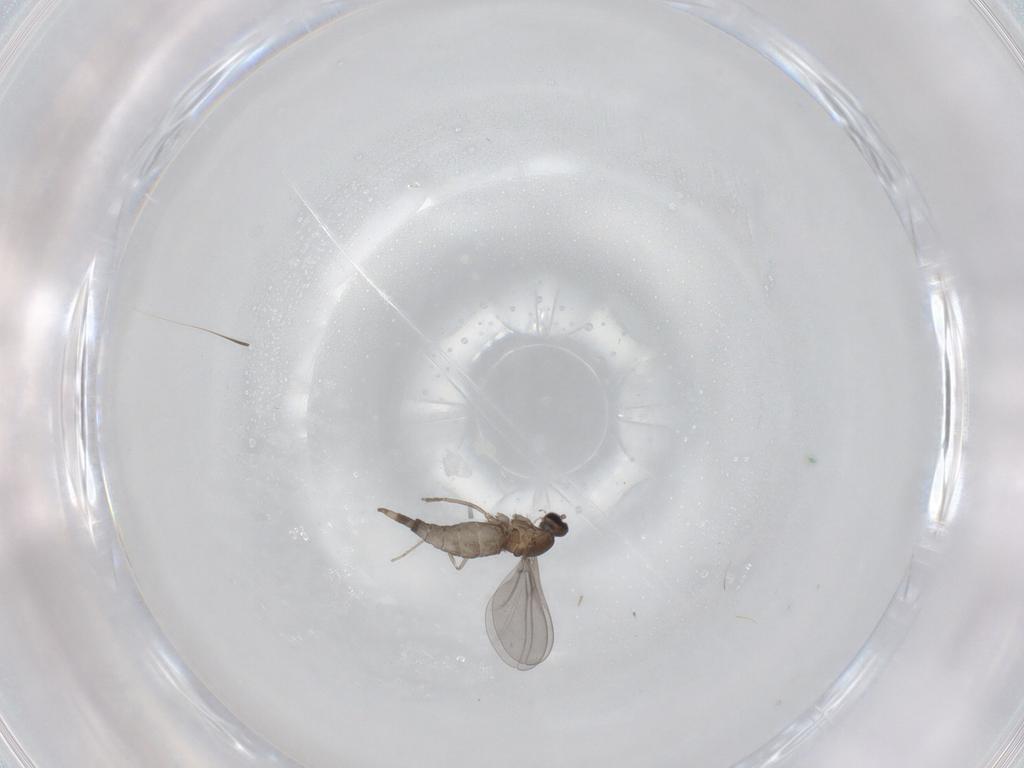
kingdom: Animalia
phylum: Arthropoda
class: Insecta
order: Diptera
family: Cecidomyiidae
